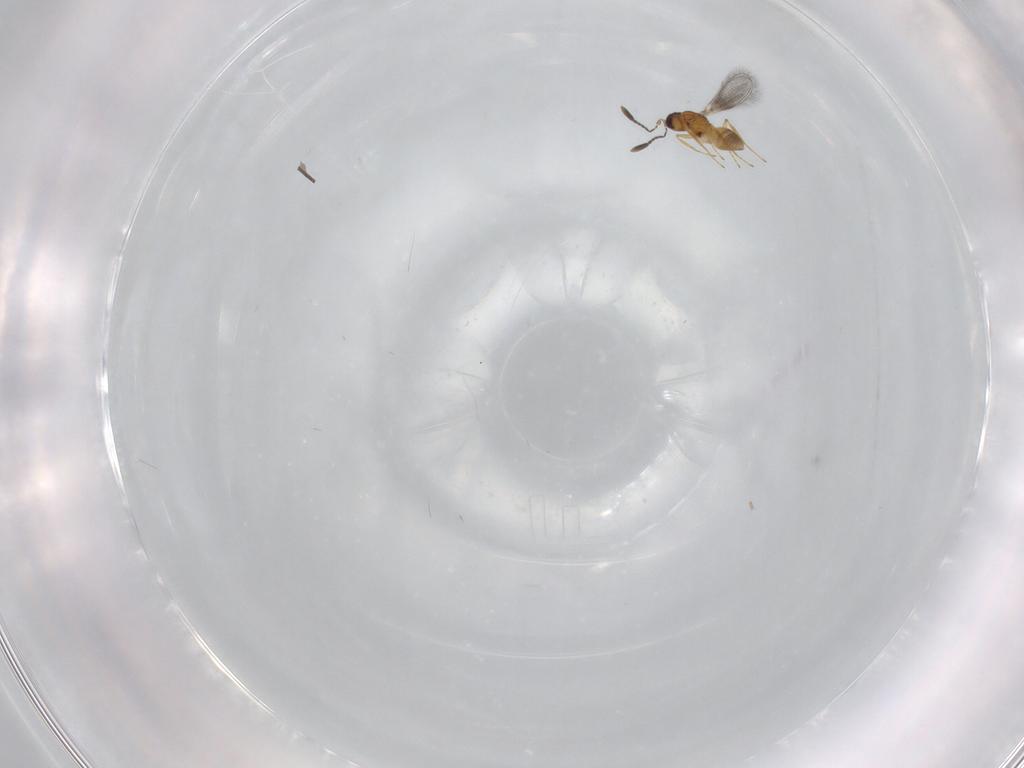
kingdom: Animalia
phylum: Arthropoda
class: Insecta
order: Hymenoptera
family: Mymaridae
